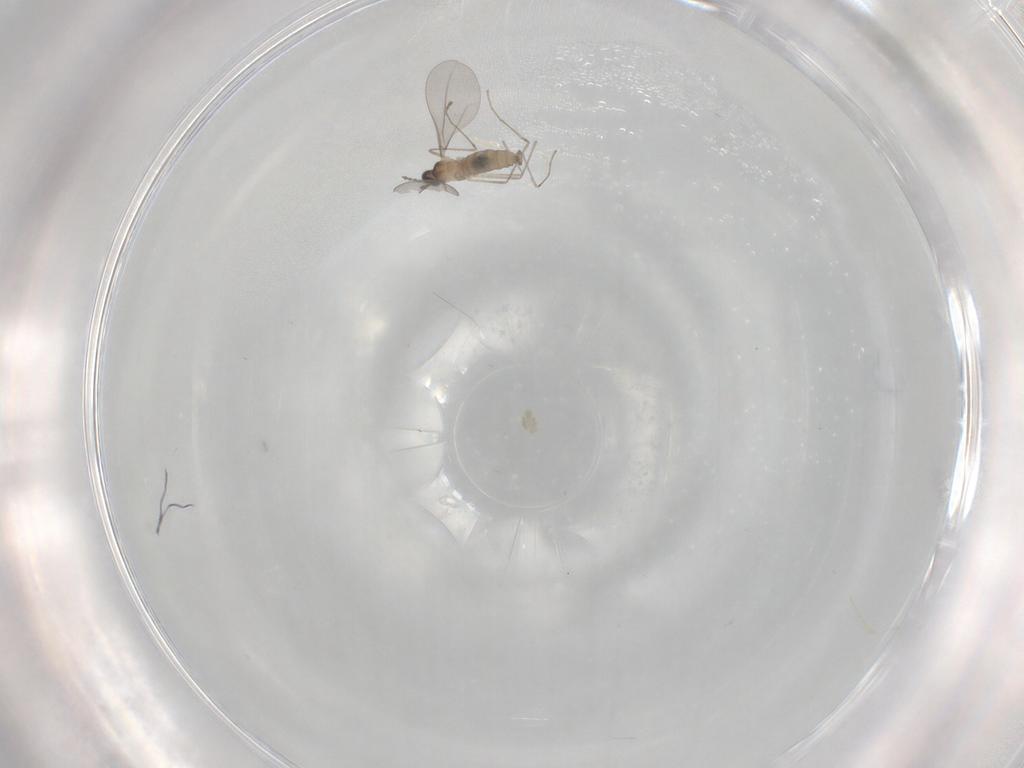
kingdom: Animalia
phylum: Arthropoda
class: Insecta
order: Diptera
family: Cecidomyiidae
